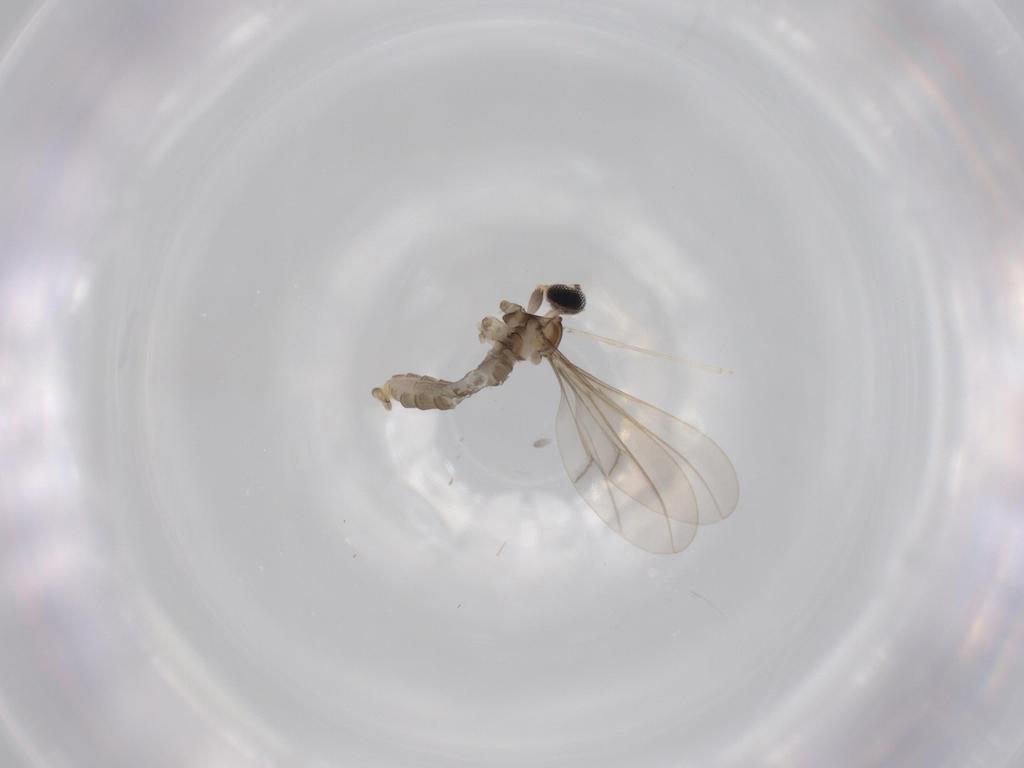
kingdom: Animalia
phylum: Arthropoda
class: Insecta
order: Diptera
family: Cecidomyiidae
